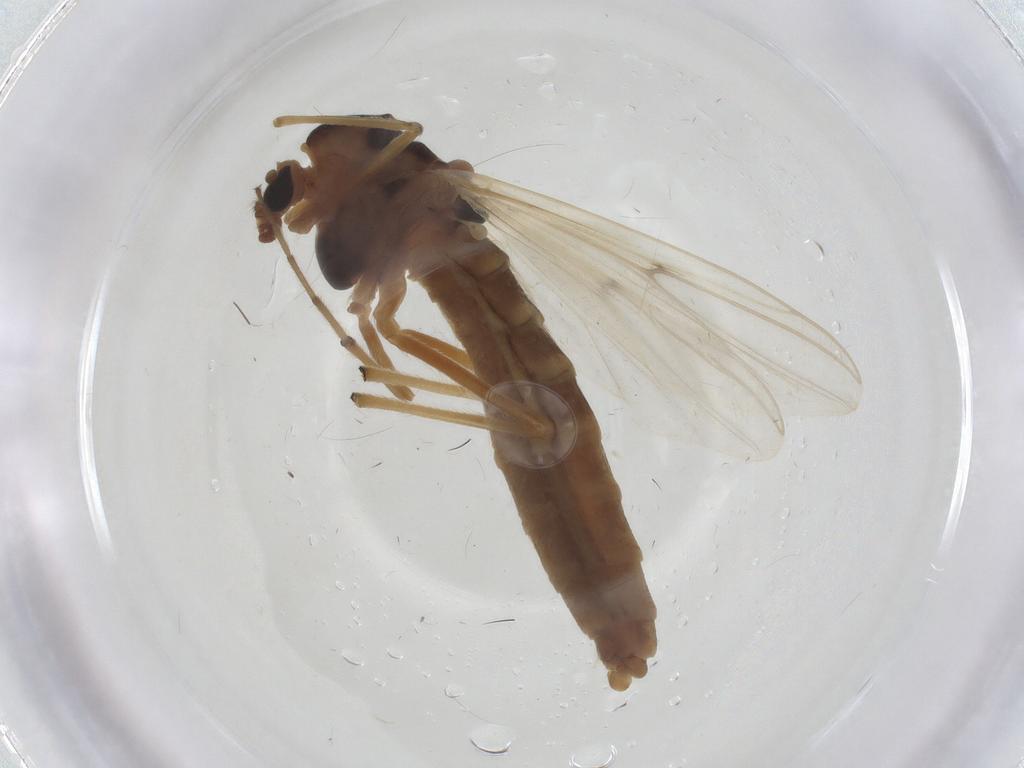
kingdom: Animalia
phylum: Arthropoda
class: Insecta
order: Diptera
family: Chironomidae
